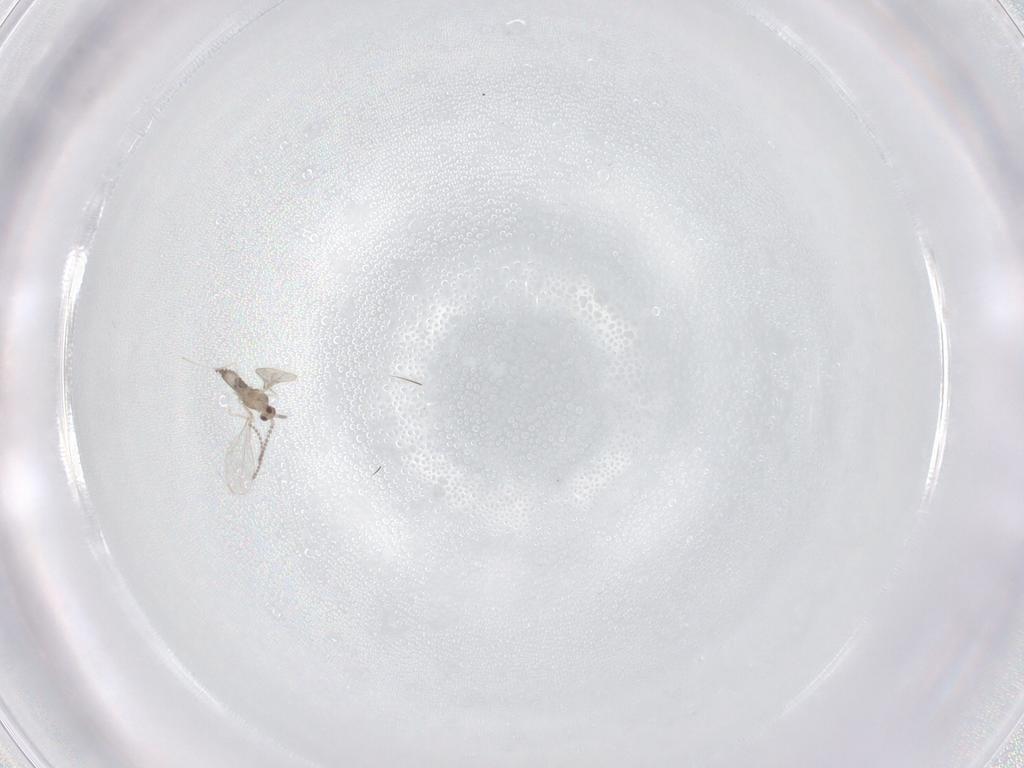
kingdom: Animalia
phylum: Arthropoda
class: Insecta
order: Diptera
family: Cecidomyiidae
